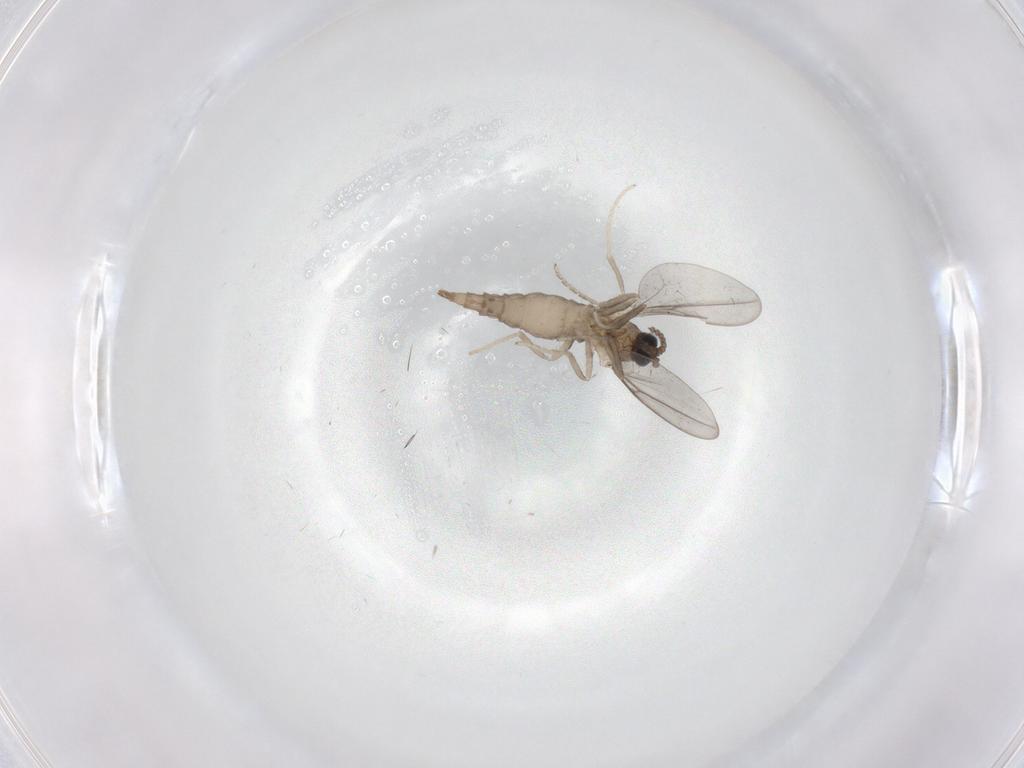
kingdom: Animalia
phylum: Arthropoda
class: Insecta
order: Diptera
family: Cecidomyiidae
